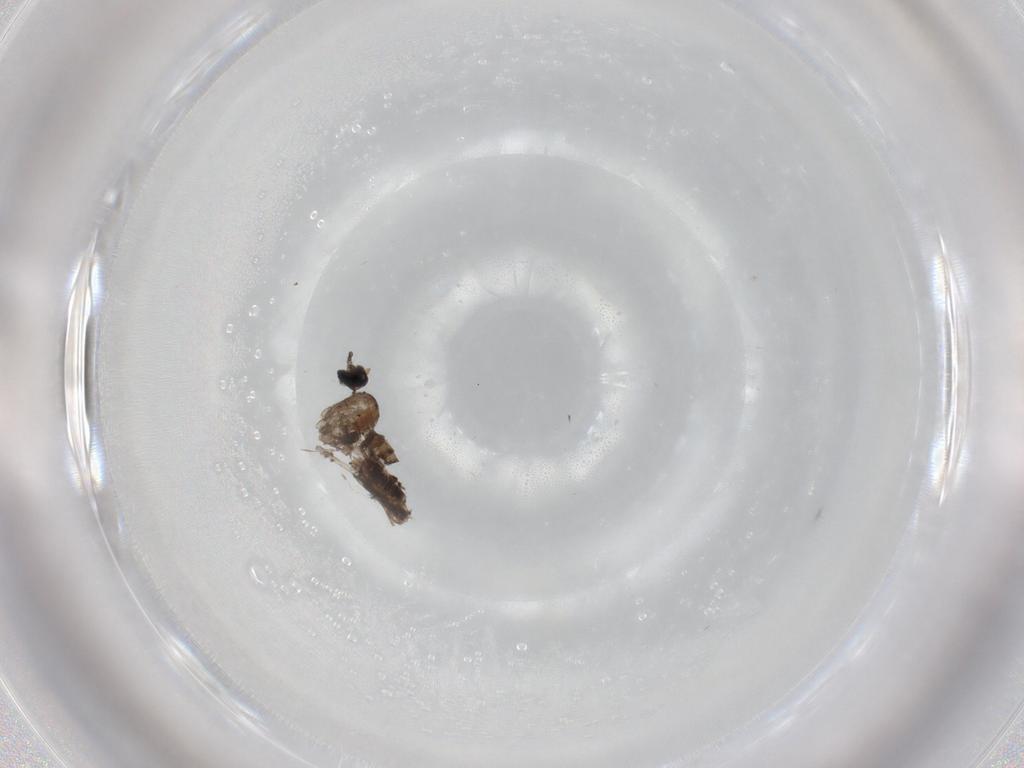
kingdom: Animalia
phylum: Arthropoda
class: Insecta
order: Diptera
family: Cecidomyiidae
